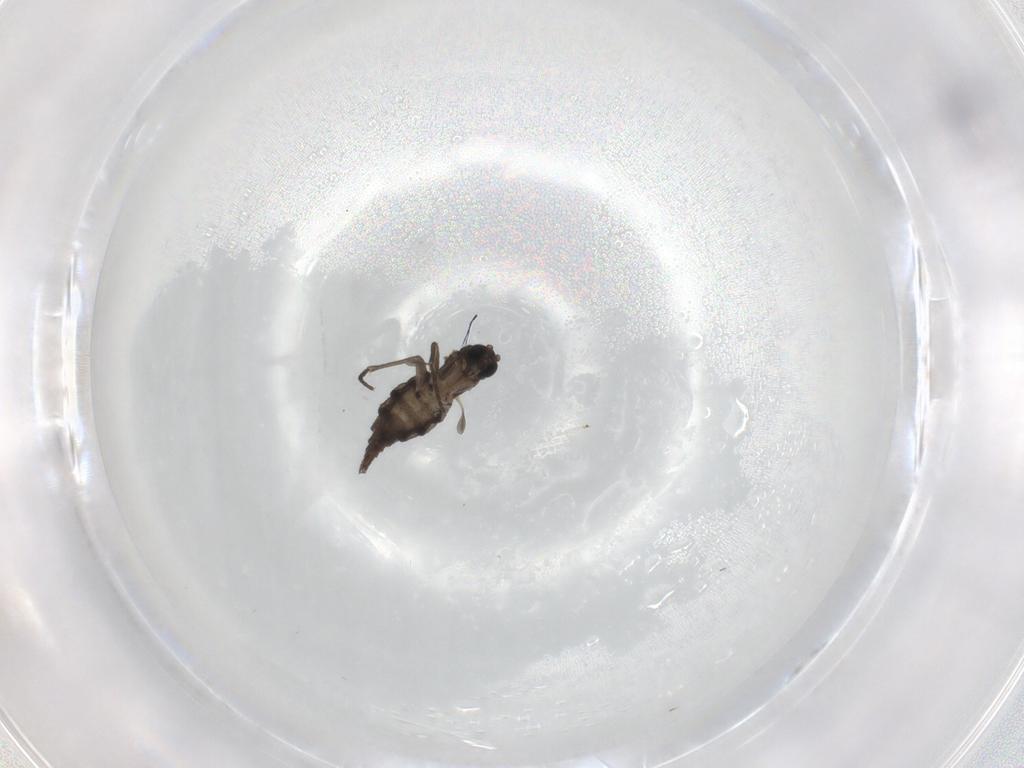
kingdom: Animalia
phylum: Arthropoda
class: Insecta
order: Diptera
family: Sciaridae
